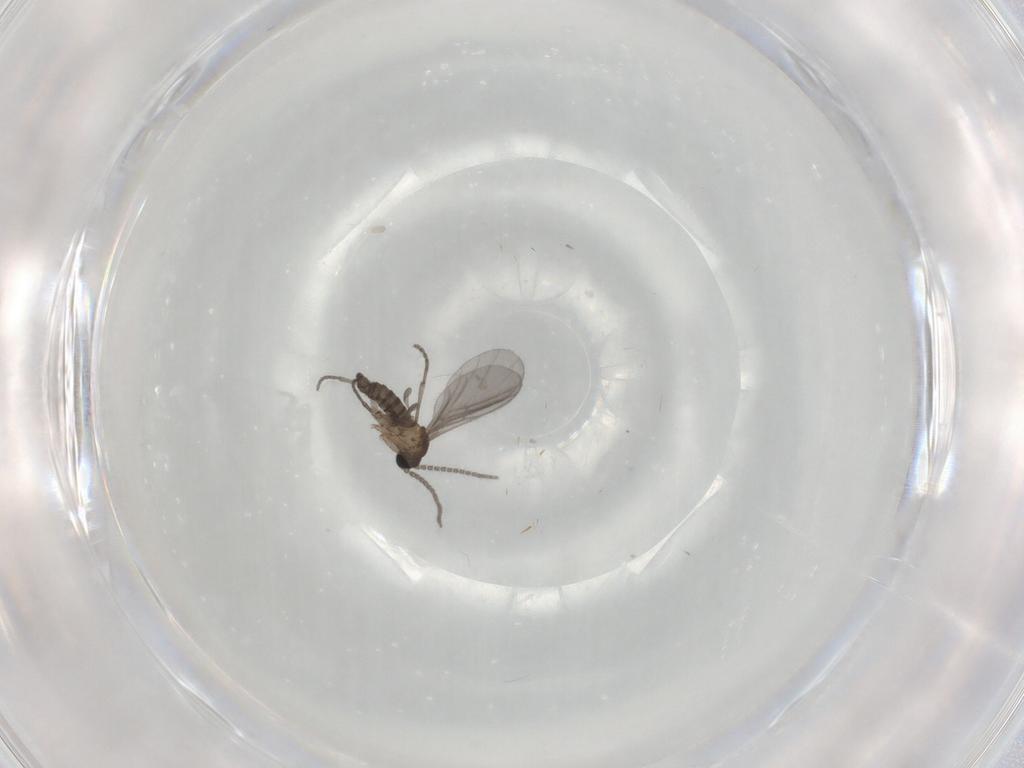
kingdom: Animalia
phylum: Arthropoda
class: Insecta
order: Diptera
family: Sciaridae
